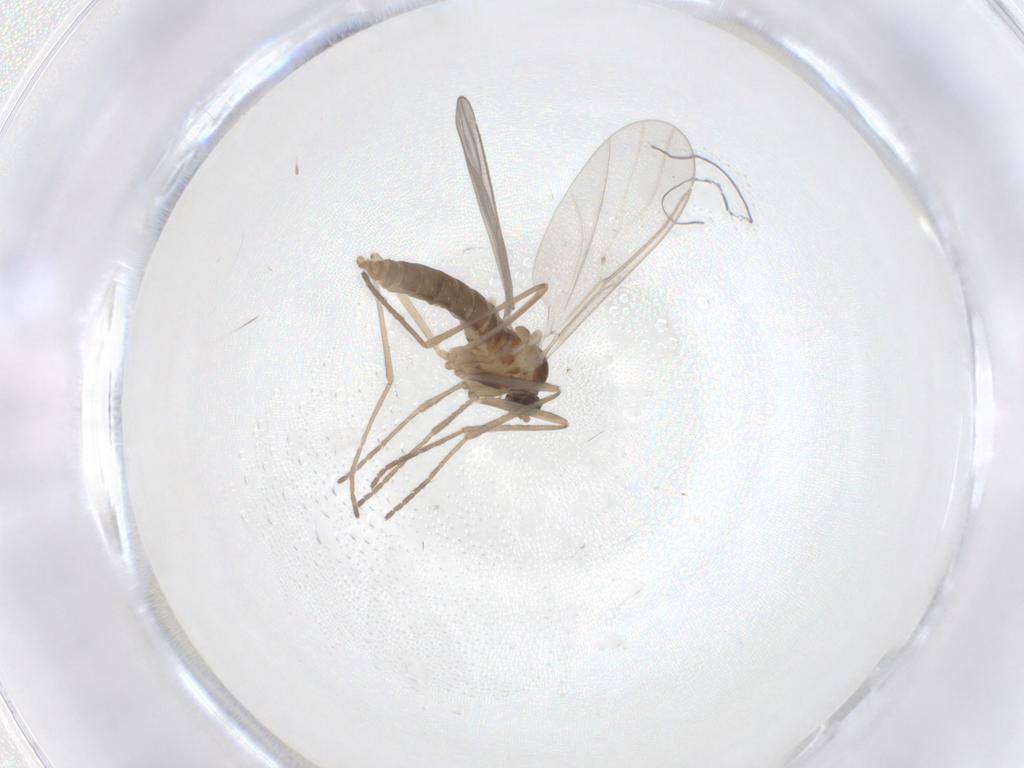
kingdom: Animalia
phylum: Arthropoda
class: Insecta
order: Diptera
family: Cecidomyiidae
